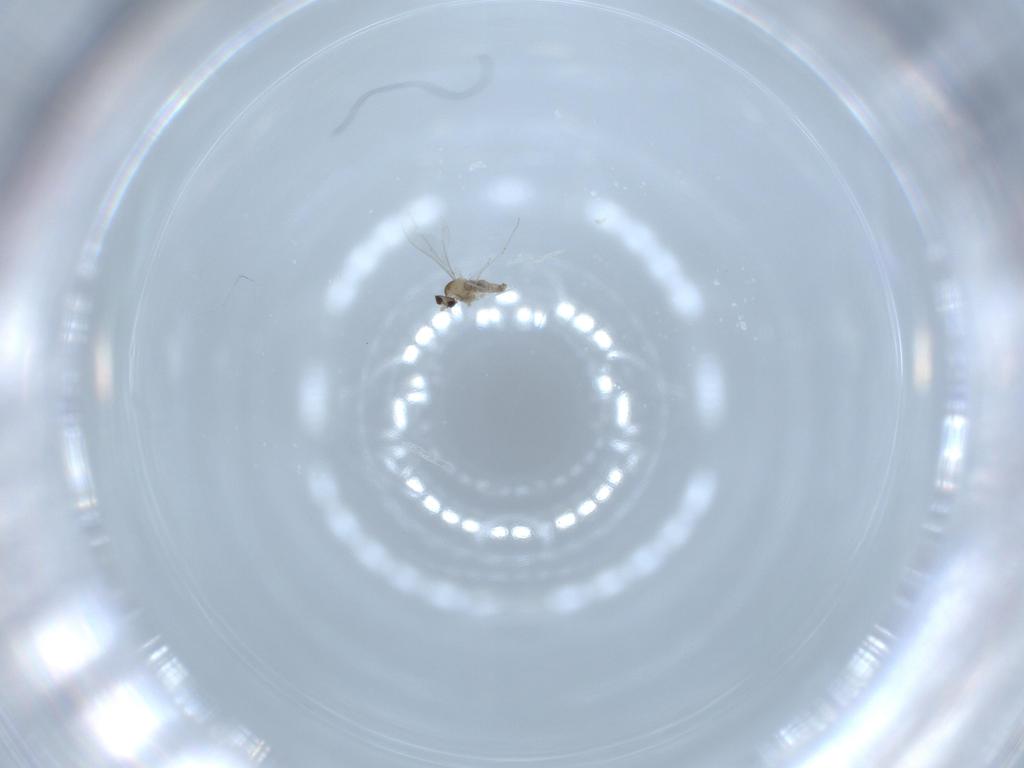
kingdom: Animalia
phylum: Arthropoda
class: Insecta
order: Diptera
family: Cecidomyiidae
